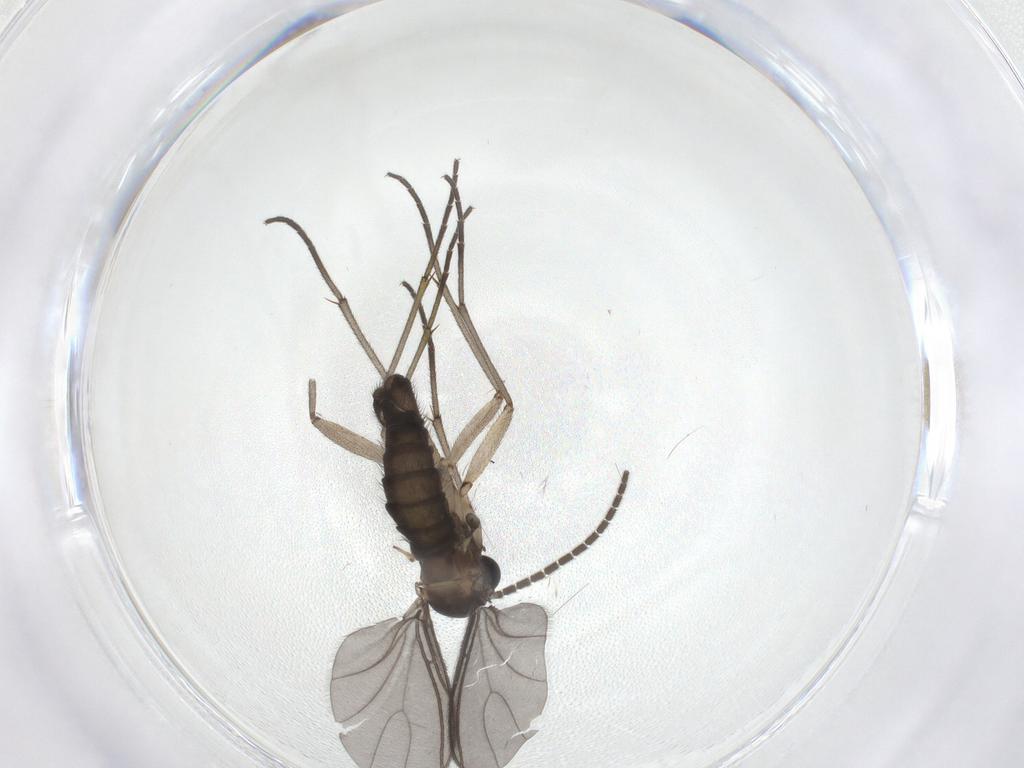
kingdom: Animalia
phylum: Arthropoda
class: Insecta
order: Diptera
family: Sciaridae
